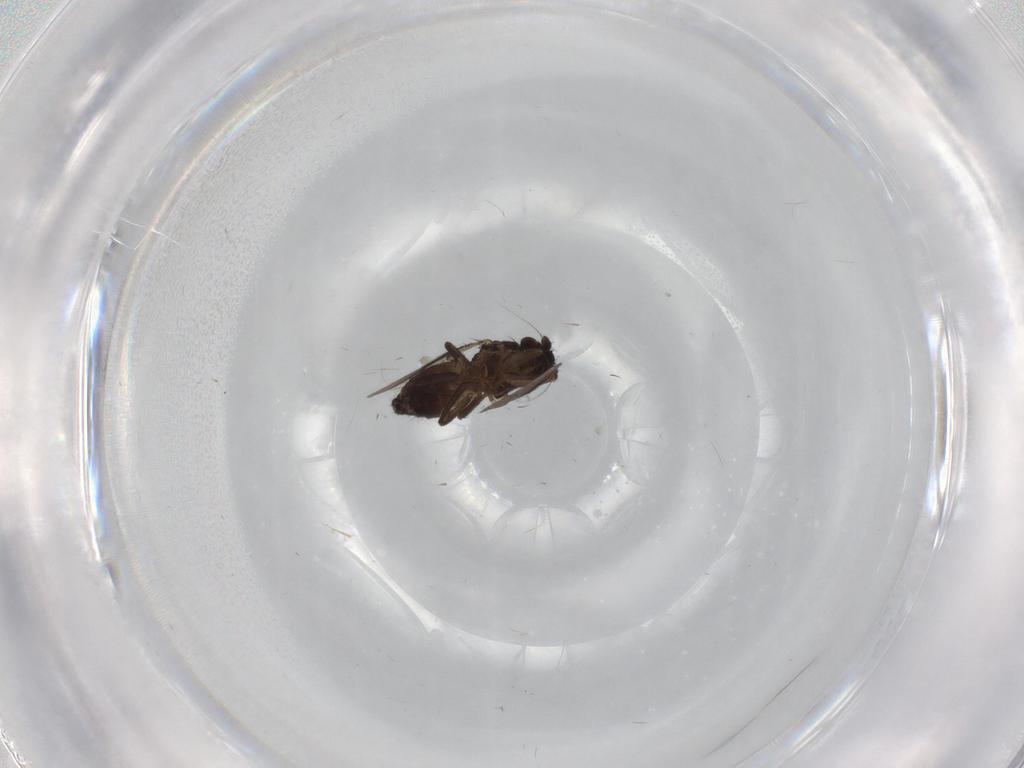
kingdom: Animalia
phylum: Arthropoda
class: Insecta
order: Diptera
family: Sphaeroceridae
